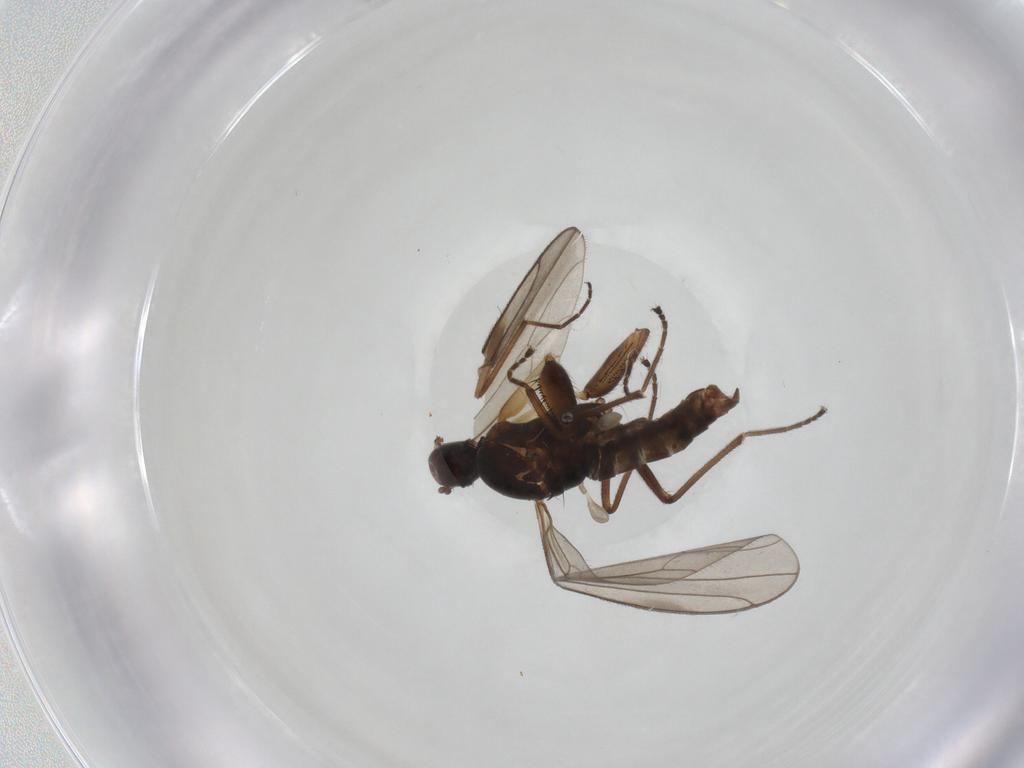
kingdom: Animalia
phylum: Arthropoda
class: Insecta
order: Diptera
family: Empididae
